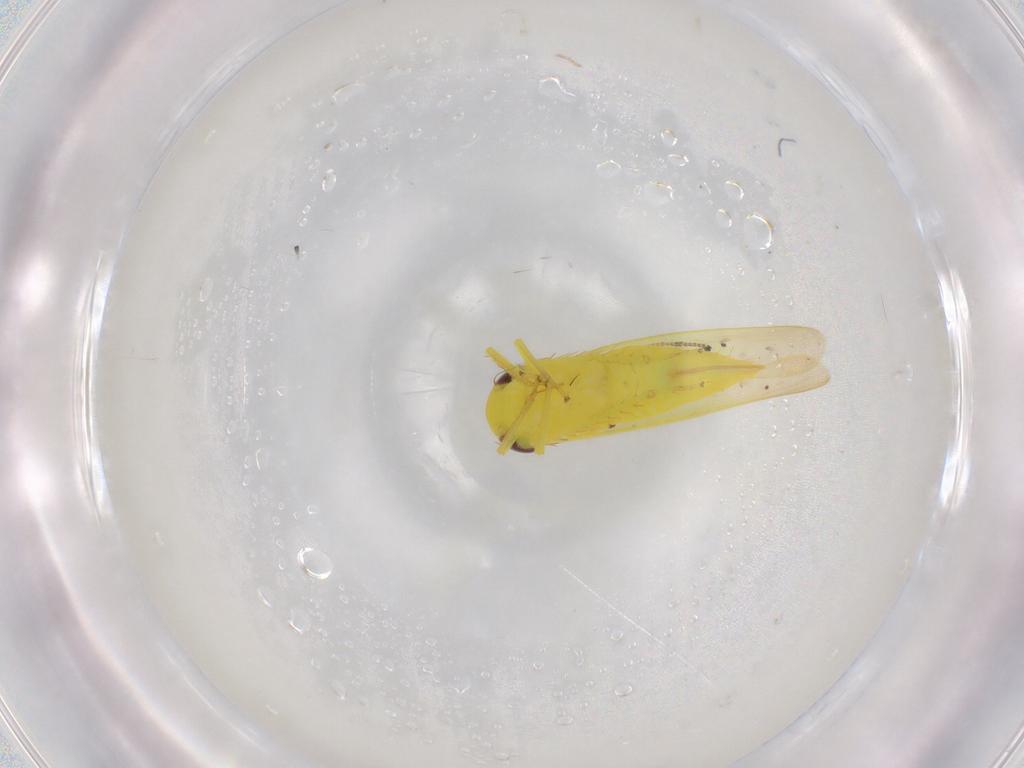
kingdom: Animalia
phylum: Arthropoda
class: Insecta
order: Hemiptera
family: Cicadellidae
